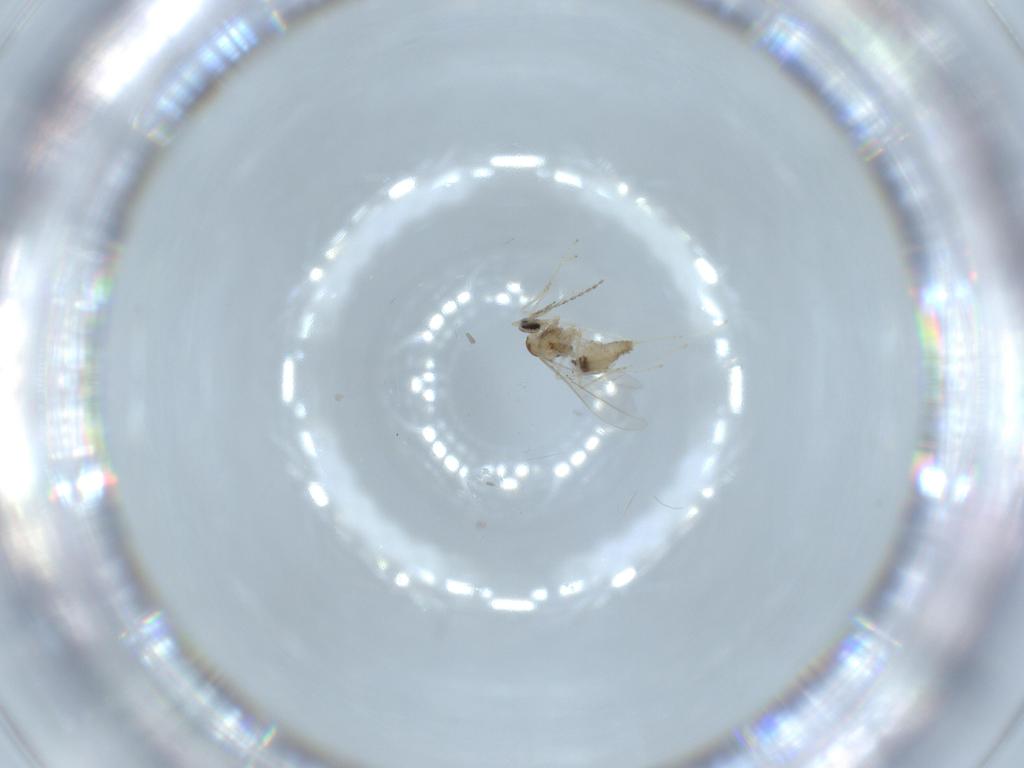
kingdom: Animalia
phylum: Arthropoda
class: Insecta
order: Diptera
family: Cecidomyiidae
